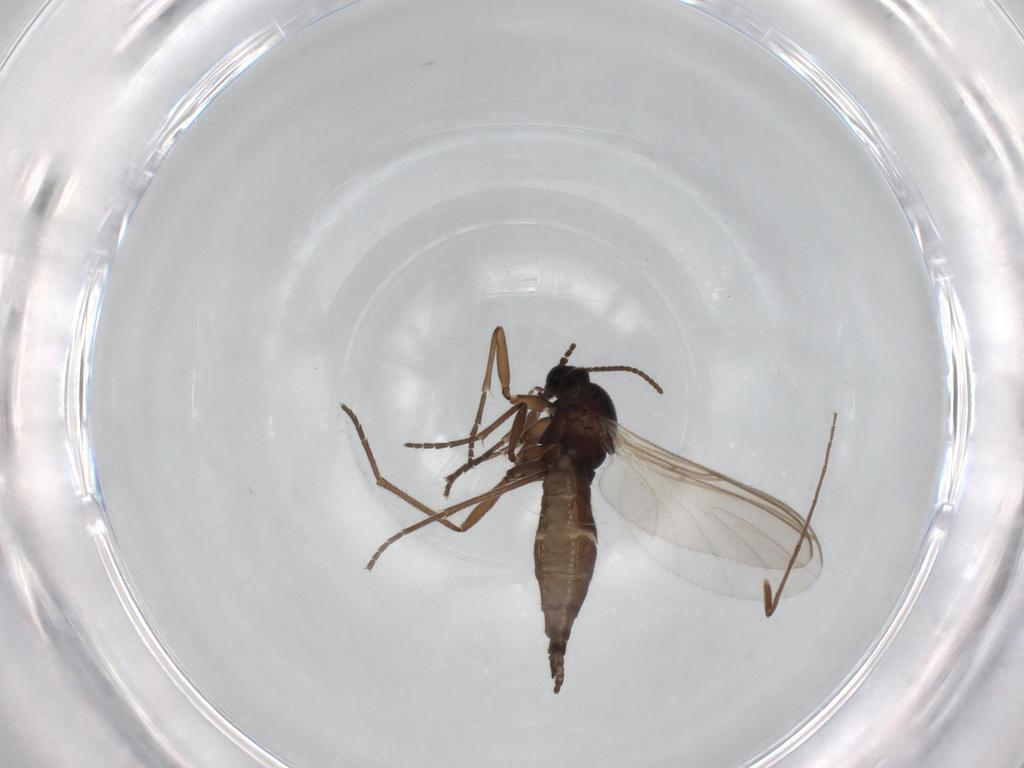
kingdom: Animalia
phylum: Arthropoda
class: Insecta
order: Diptera
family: Sciaridae
